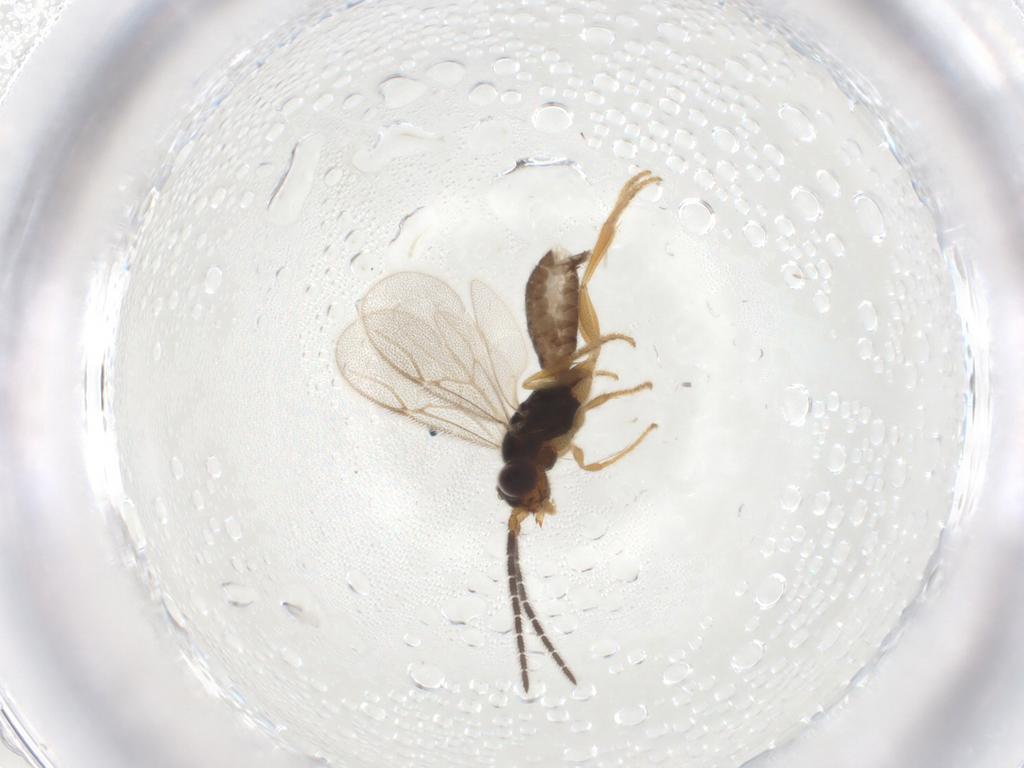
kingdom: Animalia
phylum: Arthropoda
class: Insecta
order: Hymenoptera
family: Dryinidae
